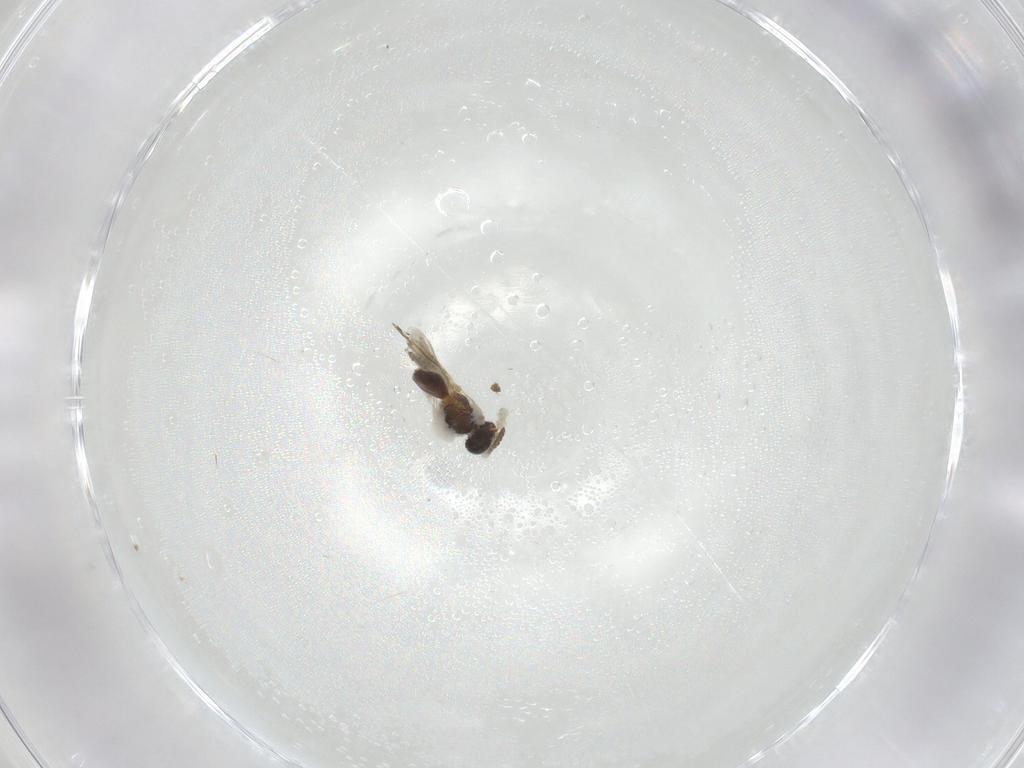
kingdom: Animalia
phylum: Arthropoda
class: Insecta
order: Hymenoptera
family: Scelionidae
